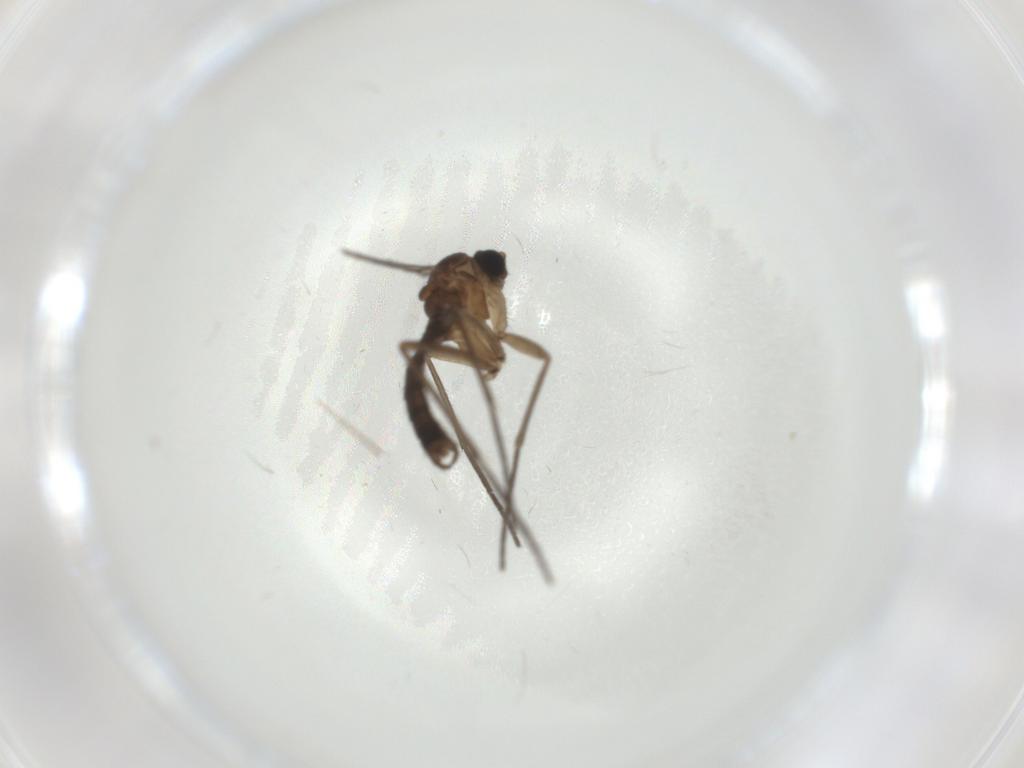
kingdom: Animalia
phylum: Arthropoda
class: Insecta
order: Diptera
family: Sciaridae
